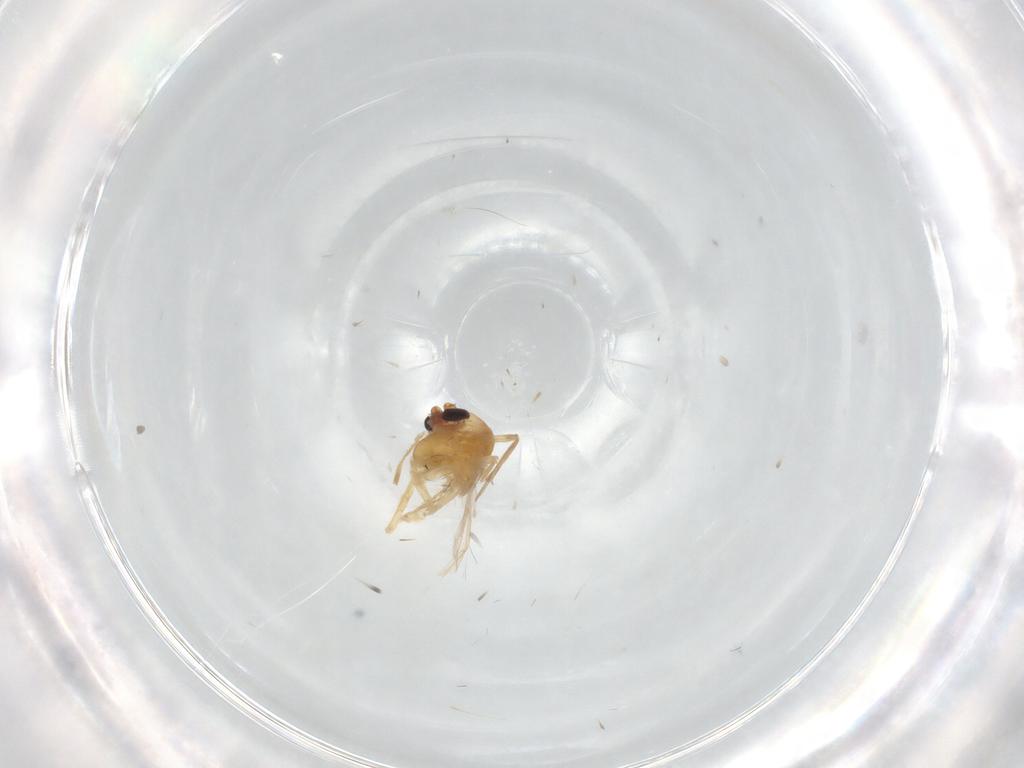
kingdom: Animalia
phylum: Arthropoda
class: Insecta
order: Diptera
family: Chironomidae
